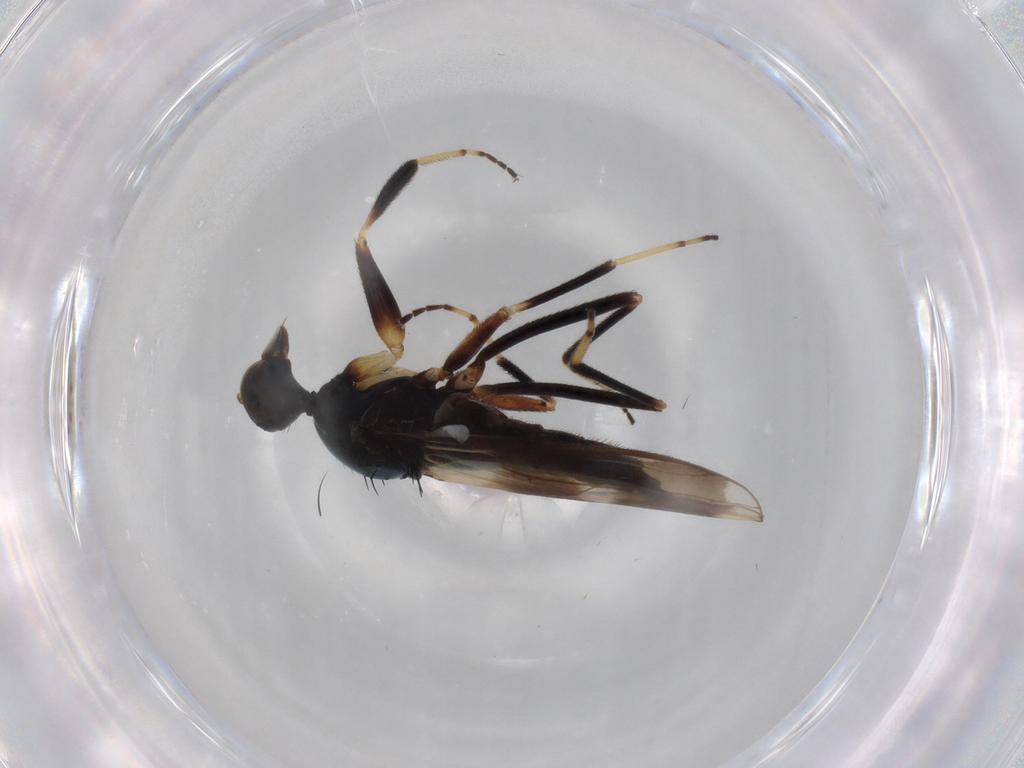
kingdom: Animalia
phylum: Arthropoda
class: Insecta
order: Diptera
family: Hybotidae
